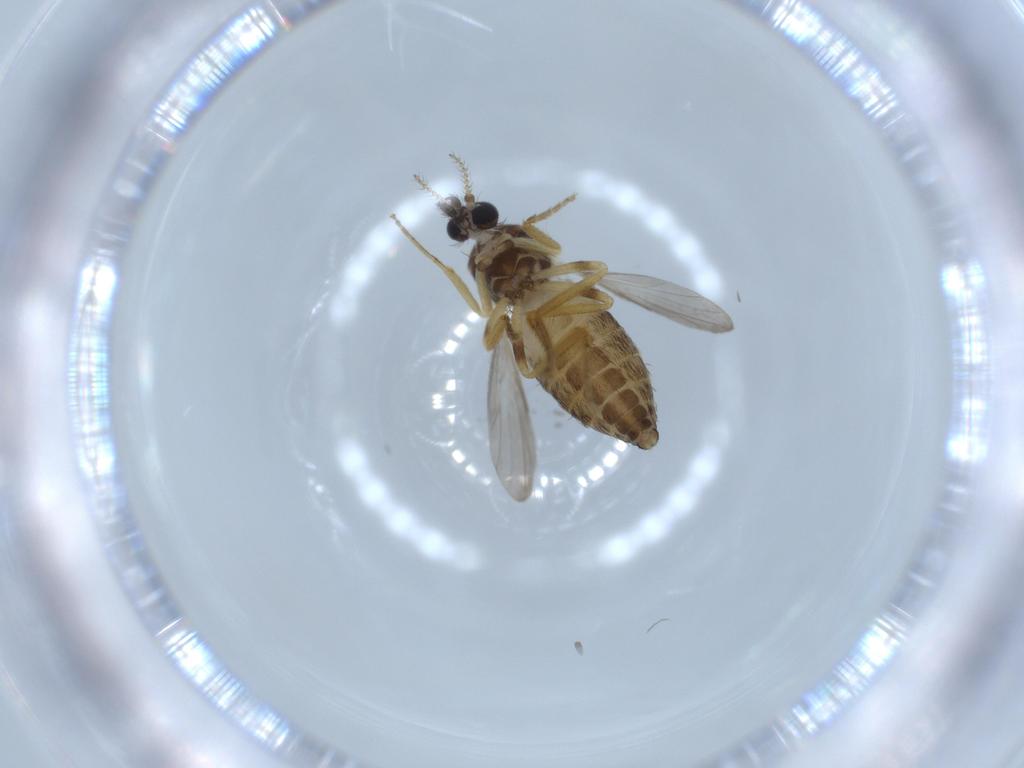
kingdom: Animalia
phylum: Arthropoda
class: Insecta
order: Diptera
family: Ceratopogonidae
